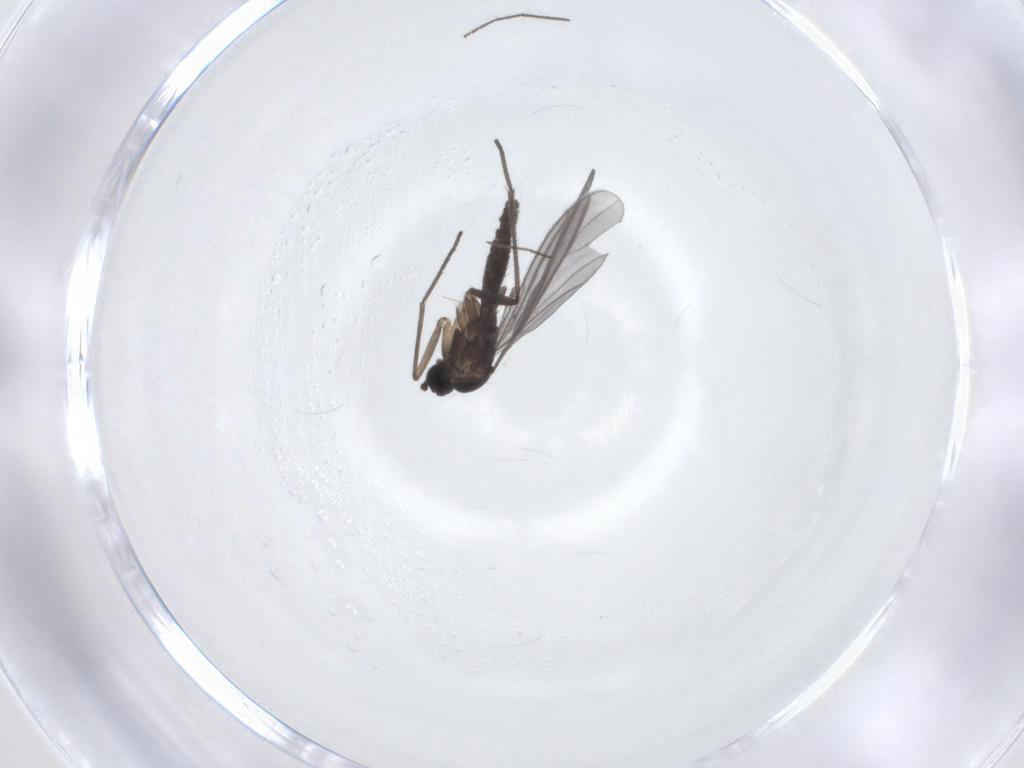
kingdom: Animalia
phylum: Arthropoda
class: Insecta
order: Diptera
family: Sciaridae
